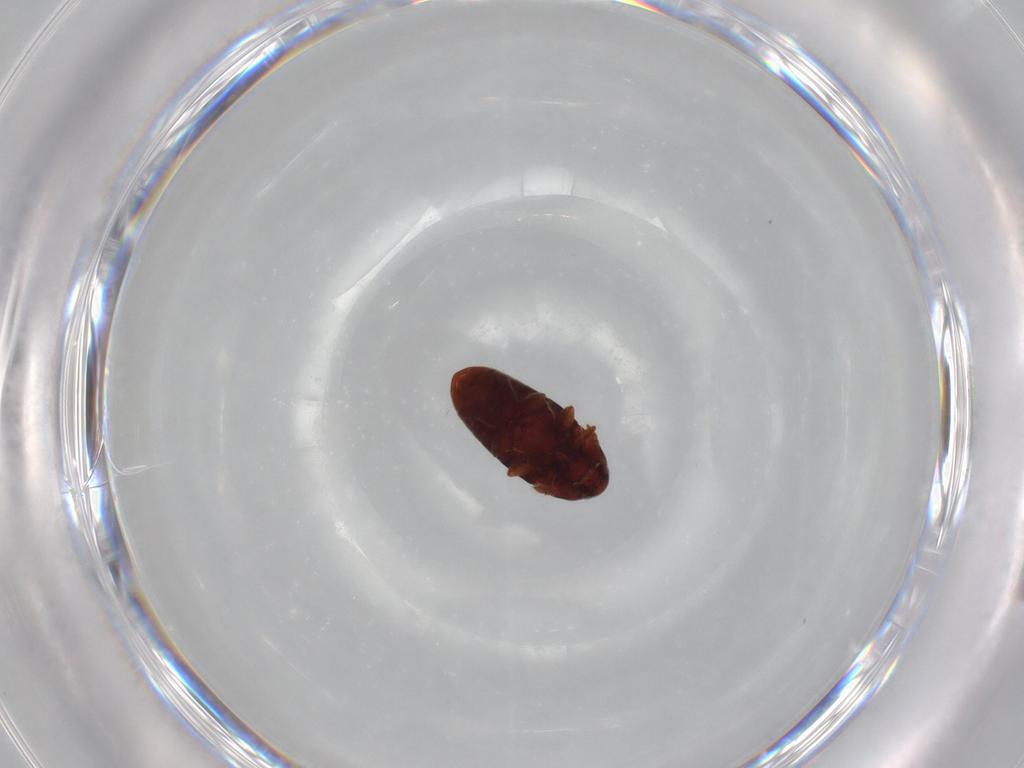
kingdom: Animalia
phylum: Arthropoda
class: Insecta
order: Coleoptera
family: Throscidae
